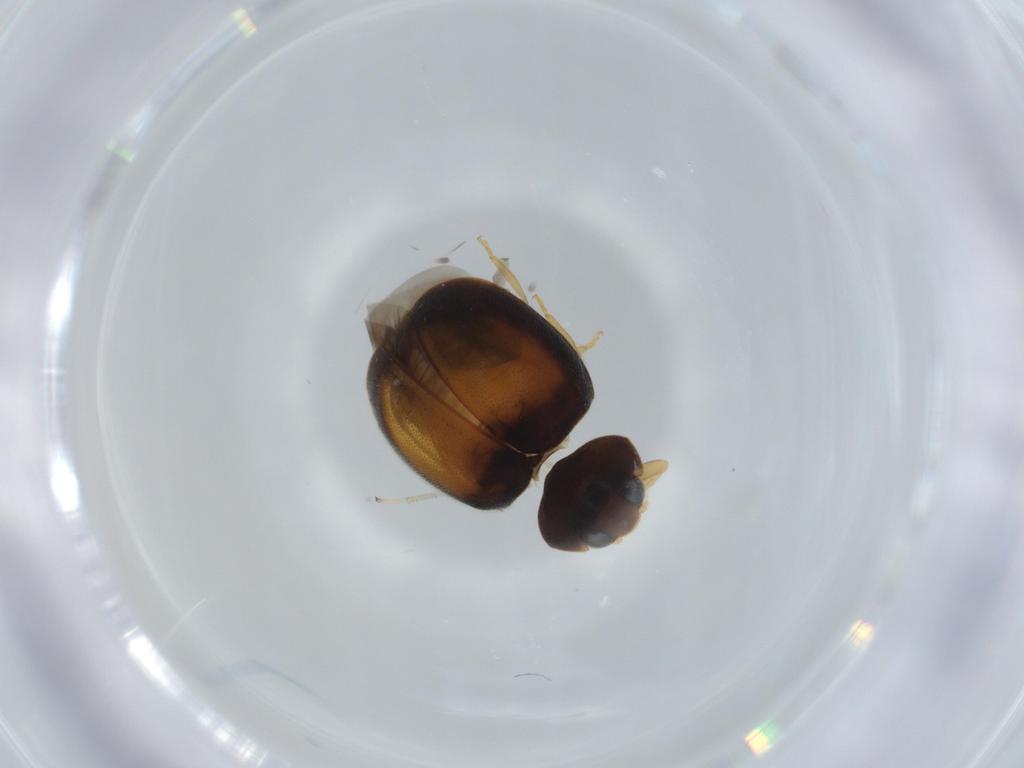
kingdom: Animalia
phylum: Arthropoda
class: Insecta
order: Coleoptera
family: Coccinellidae
